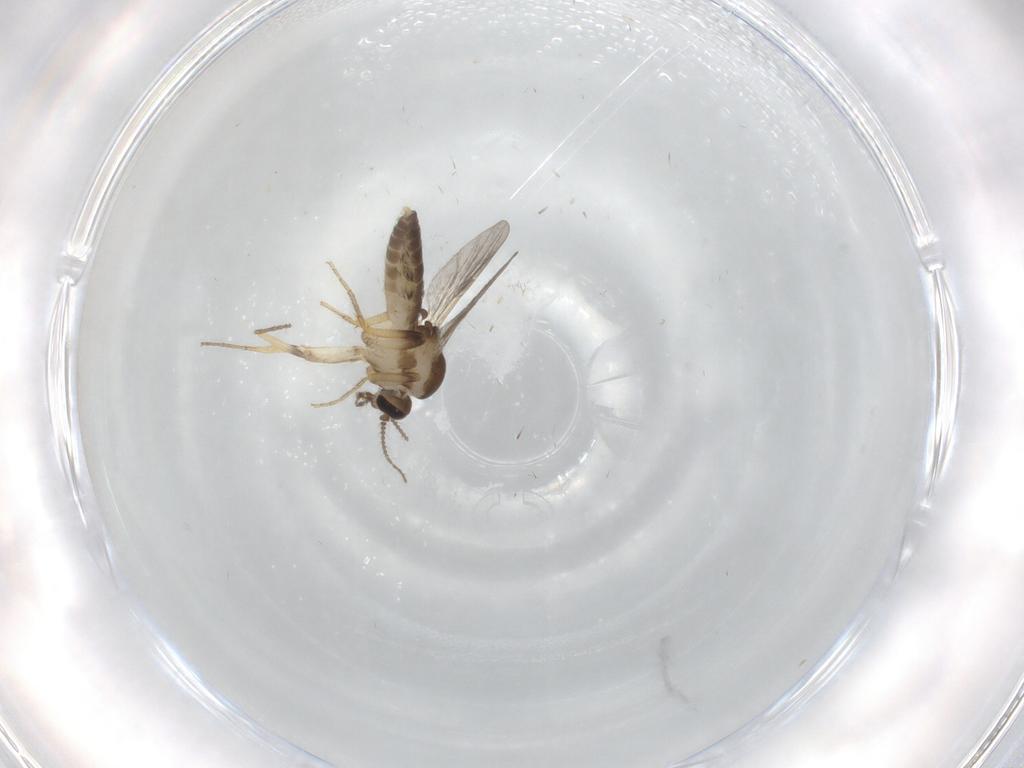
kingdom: Animalia
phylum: Arthropoda
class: Insecta
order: Diptera
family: Ceratopogonidae
